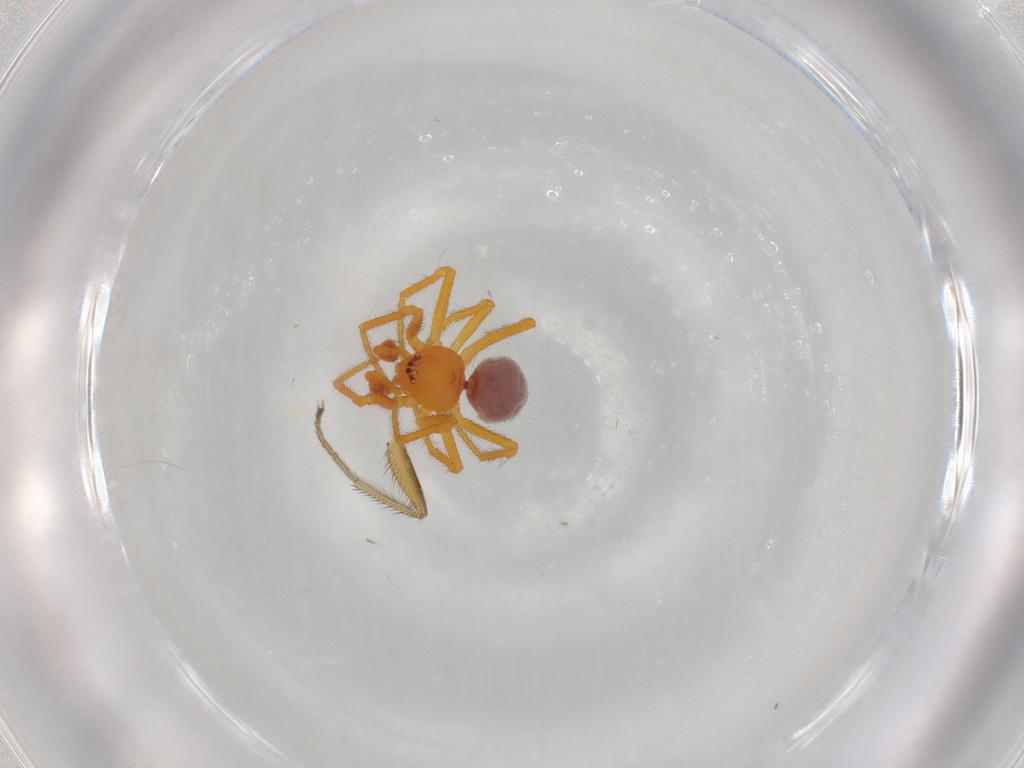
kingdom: Animalia
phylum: Arthropoda
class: Arachnida
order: Araneae
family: Theridiidae
